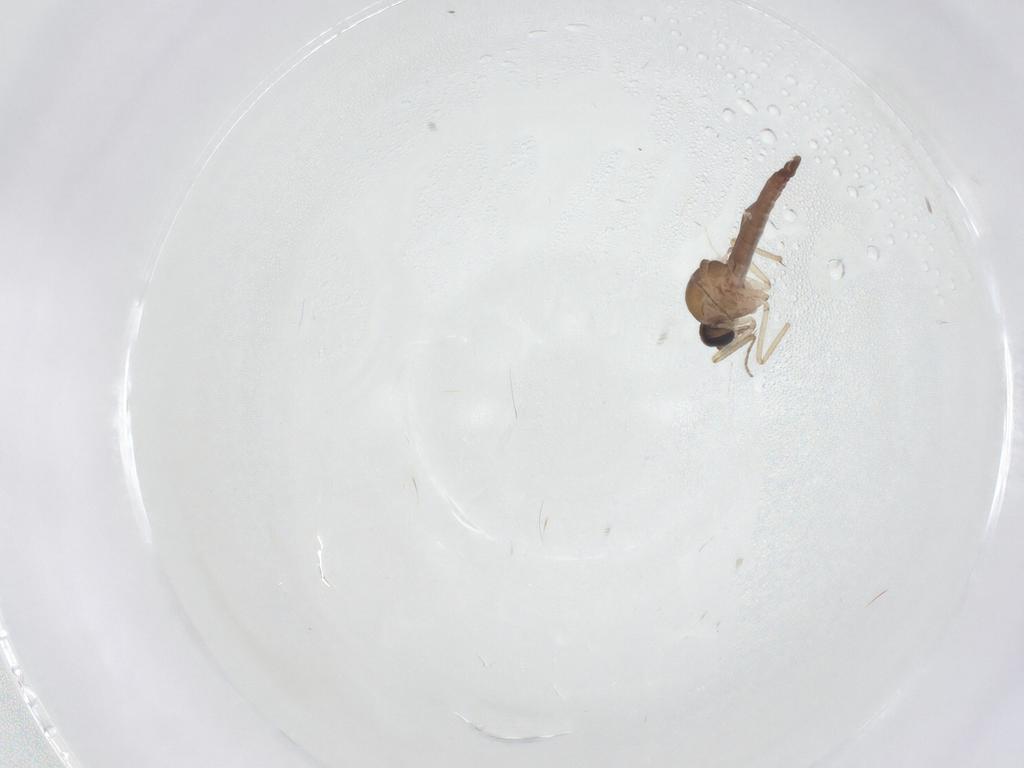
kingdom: Animalia
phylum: Arthropoda
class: Insecta
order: Diptera
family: Ceratopogonidae
